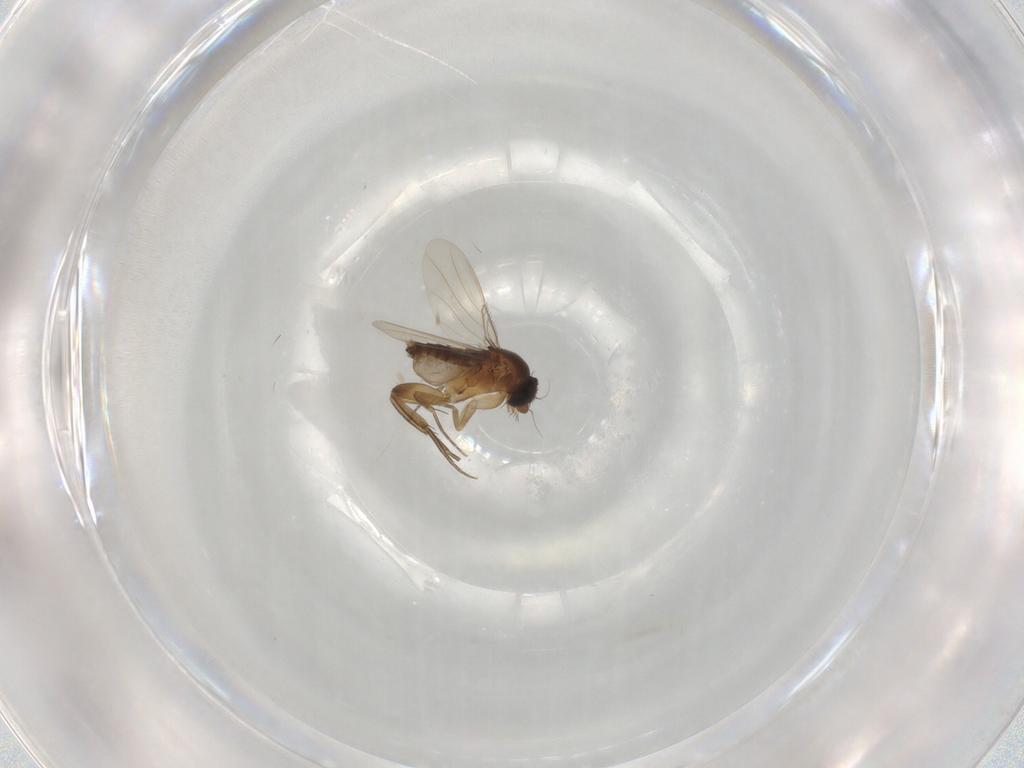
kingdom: Animalia
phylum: Arthropoda
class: Insecta
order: Diptera
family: Phoridae
